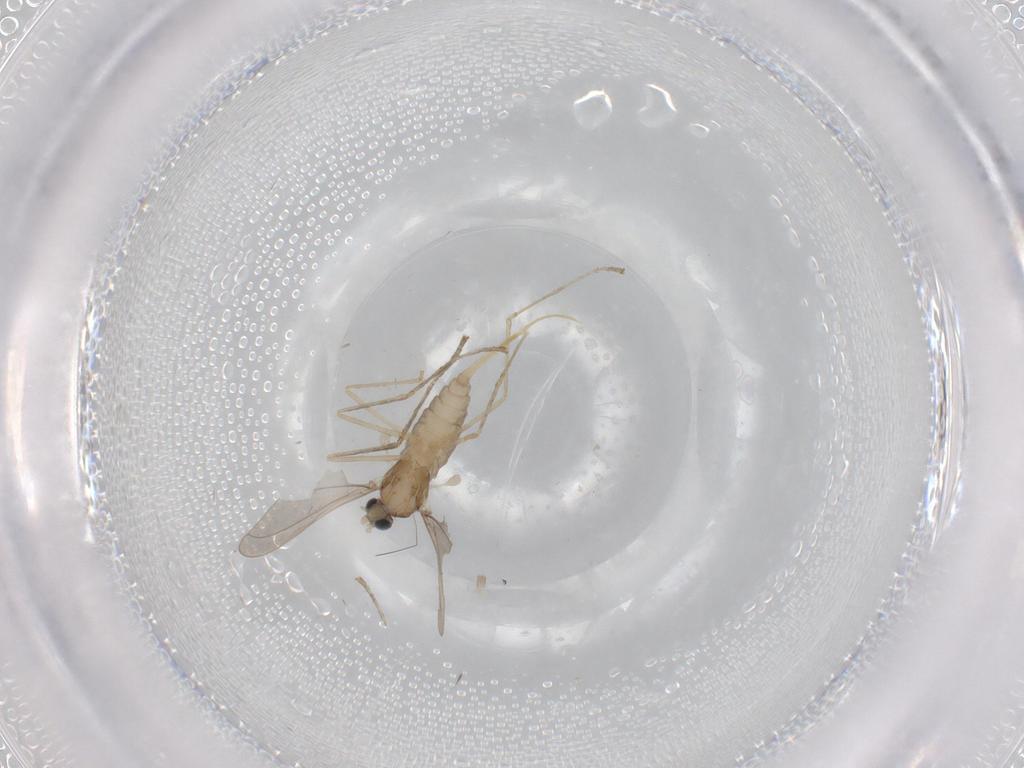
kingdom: Animalia
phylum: Arthropoda
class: Insecta
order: Diptera
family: Cecidomyiidae
